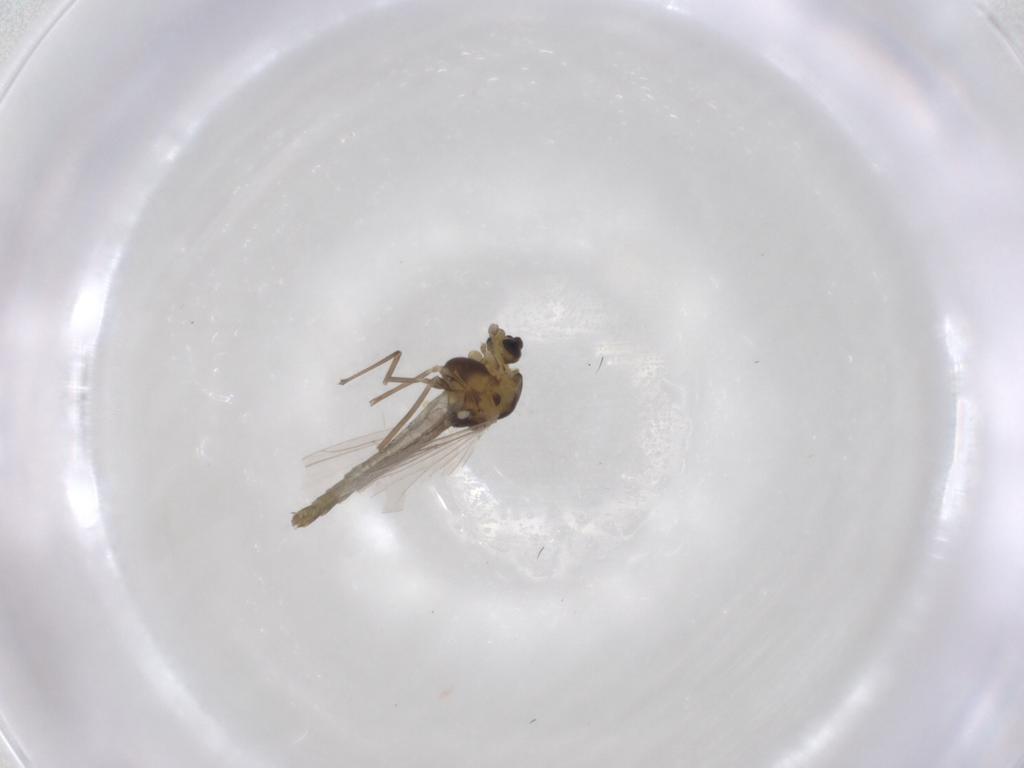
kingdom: Animalia
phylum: Arthropoda
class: Insecta
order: Diptera
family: Chironomidae
